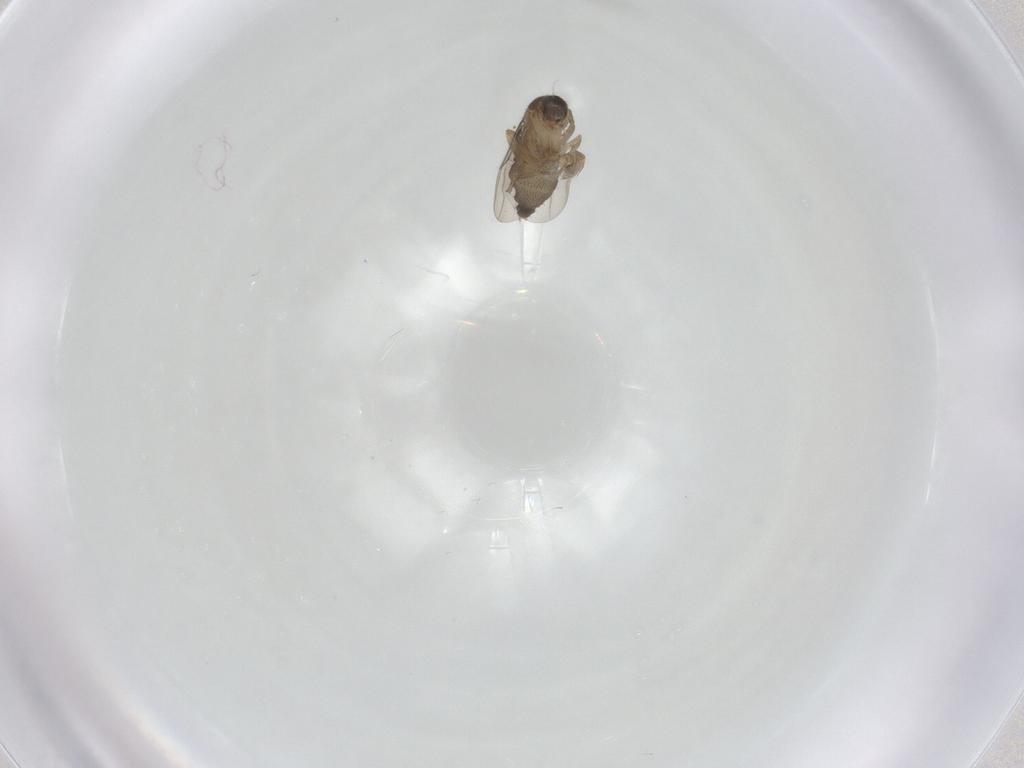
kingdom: Animalia
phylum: Arthropoda
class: Insecta
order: Diptera
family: Phoridae
